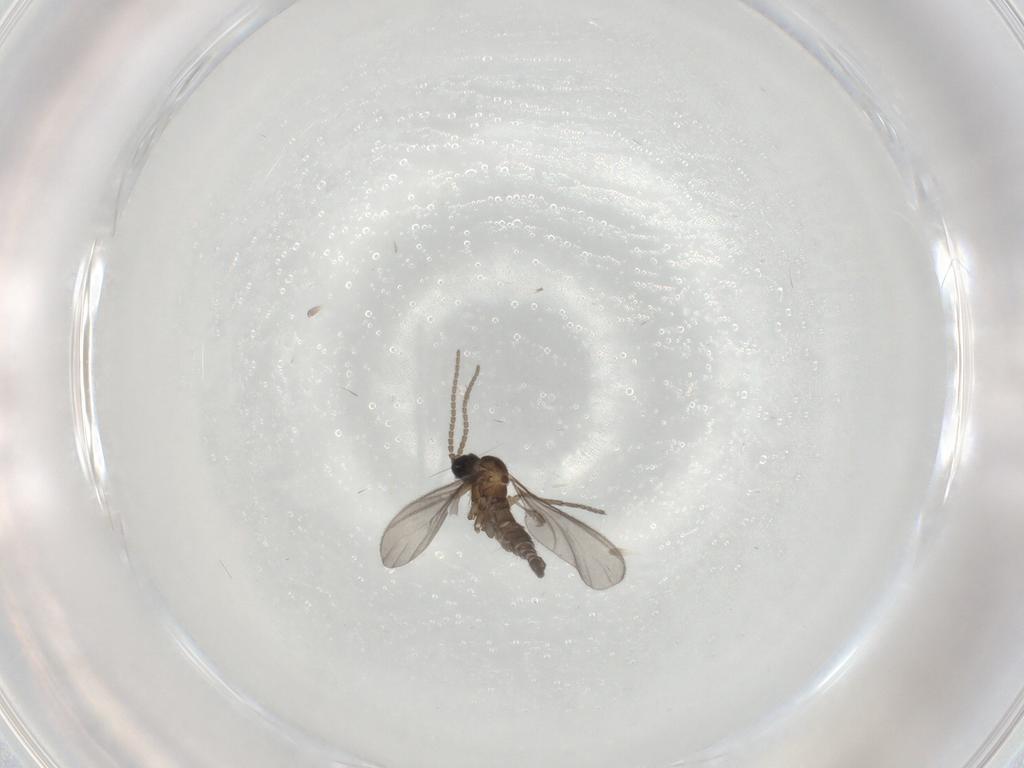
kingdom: Animalia
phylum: Arthropoda
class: Insecta
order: Diptera
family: Sciaridae
